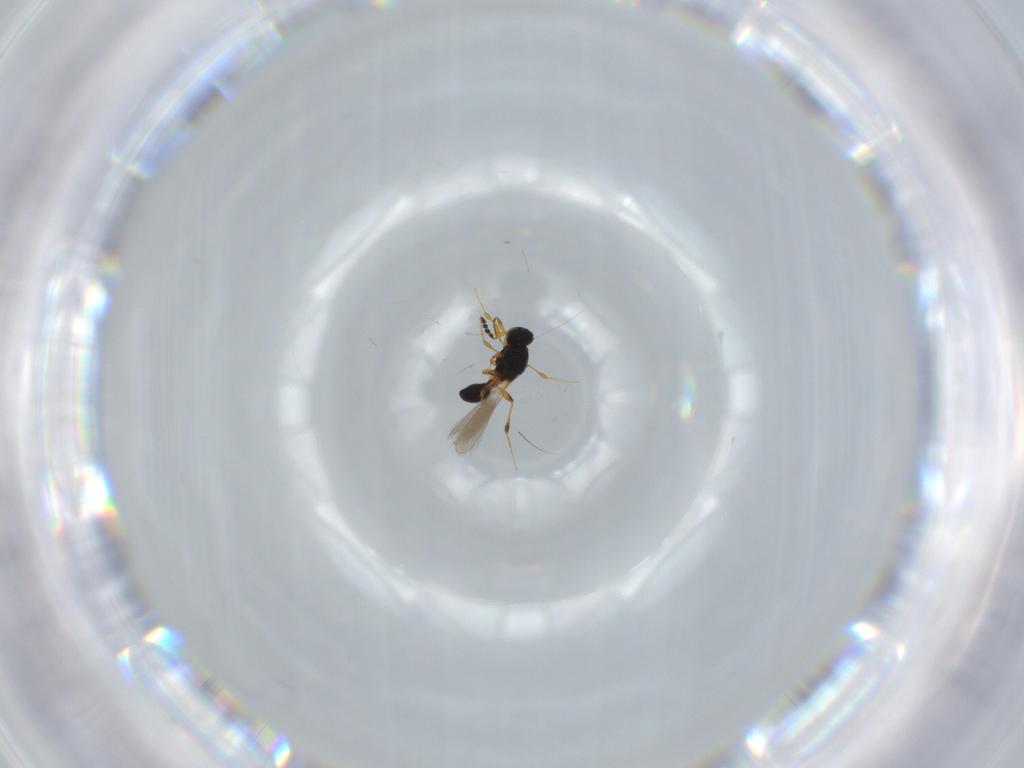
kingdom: Animalia
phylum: Arthropoda
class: Insecta
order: Hymenoptera
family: Platygastridae
